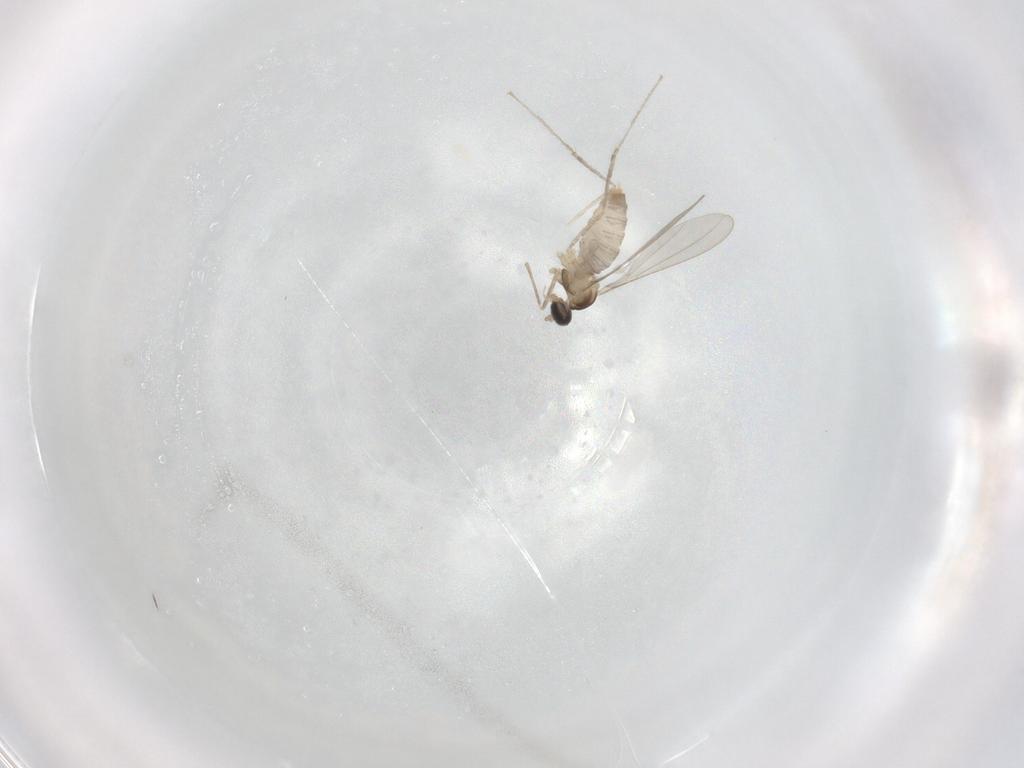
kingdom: Animalia
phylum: Arthropoda
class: Insecta
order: Diptera
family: Cecidomyiidae
